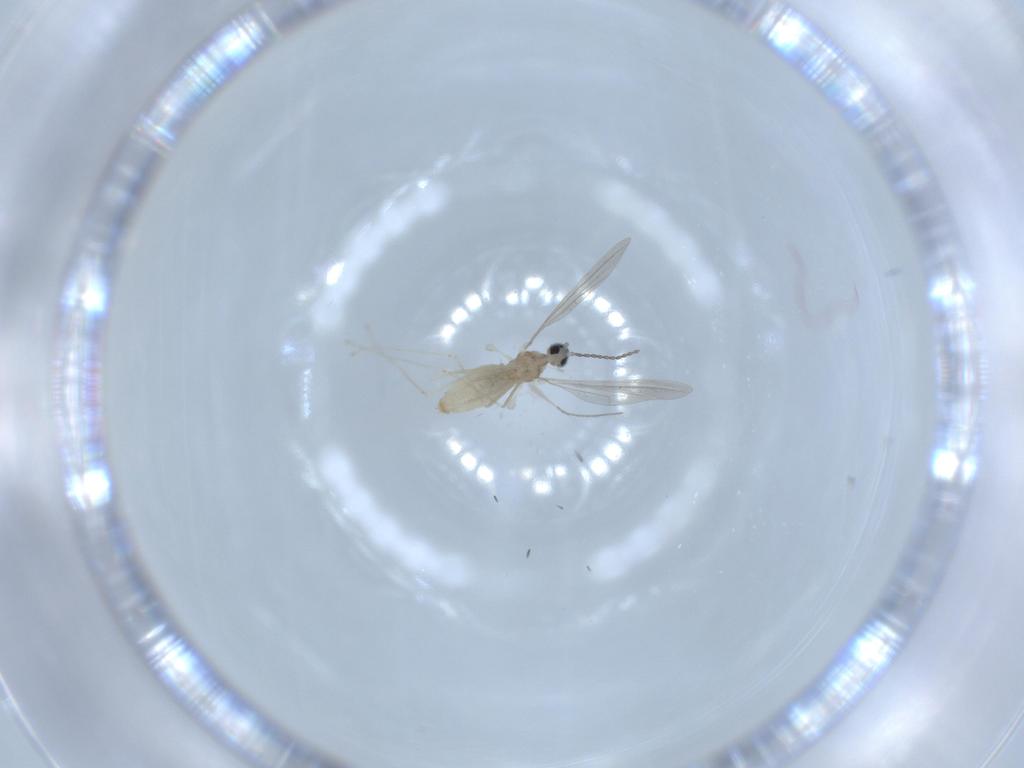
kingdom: Animalia
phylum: Arthropoda
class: Insecta
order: Diptera
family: Cecidomyiidae
